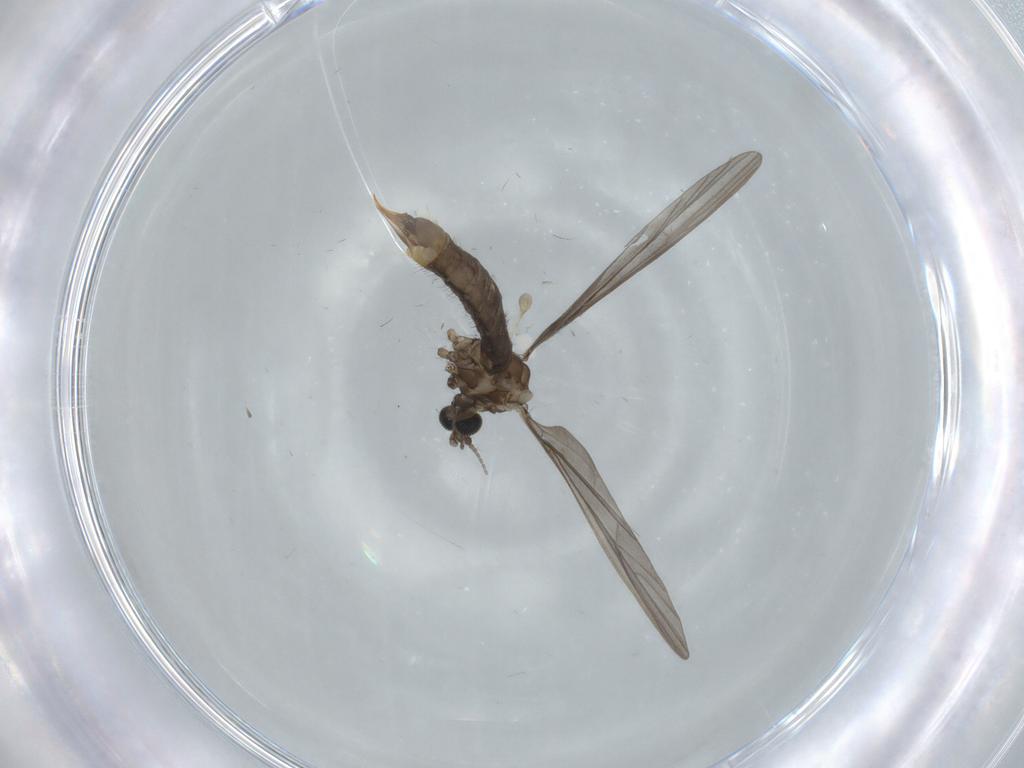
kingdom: Animalia
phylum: Arthropoda
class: Insecta
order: Diptera
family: Limoniidae
